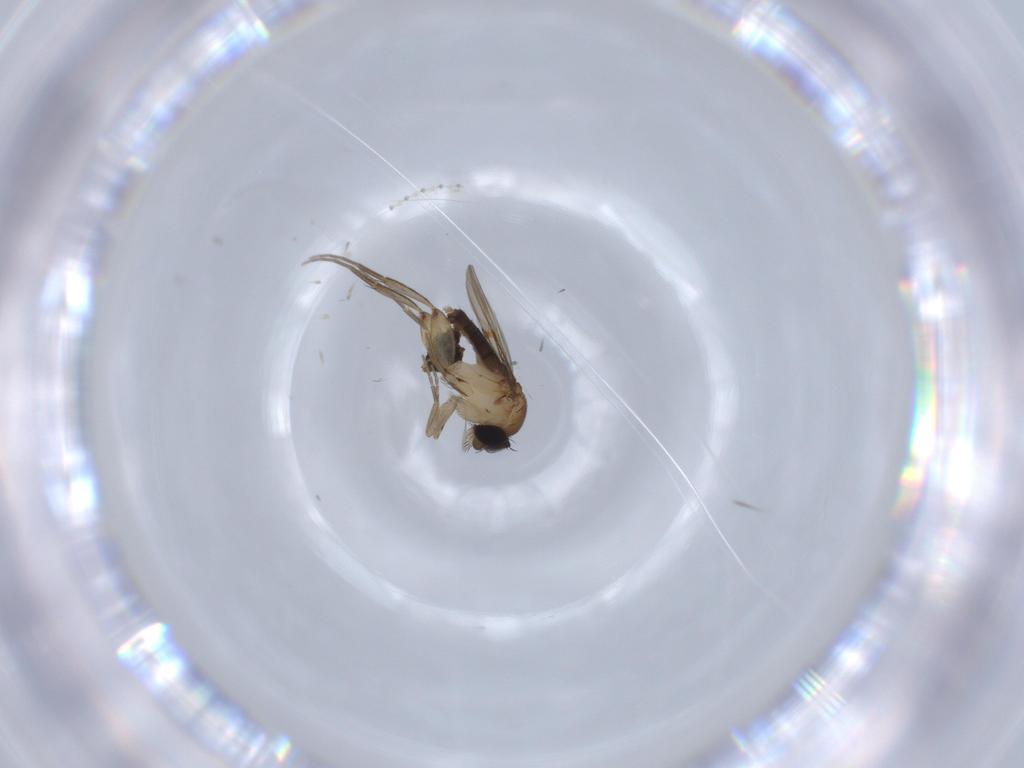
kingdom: Animalia
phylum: Arthropoda
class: Insecta
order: Diptera
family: Phoridae
